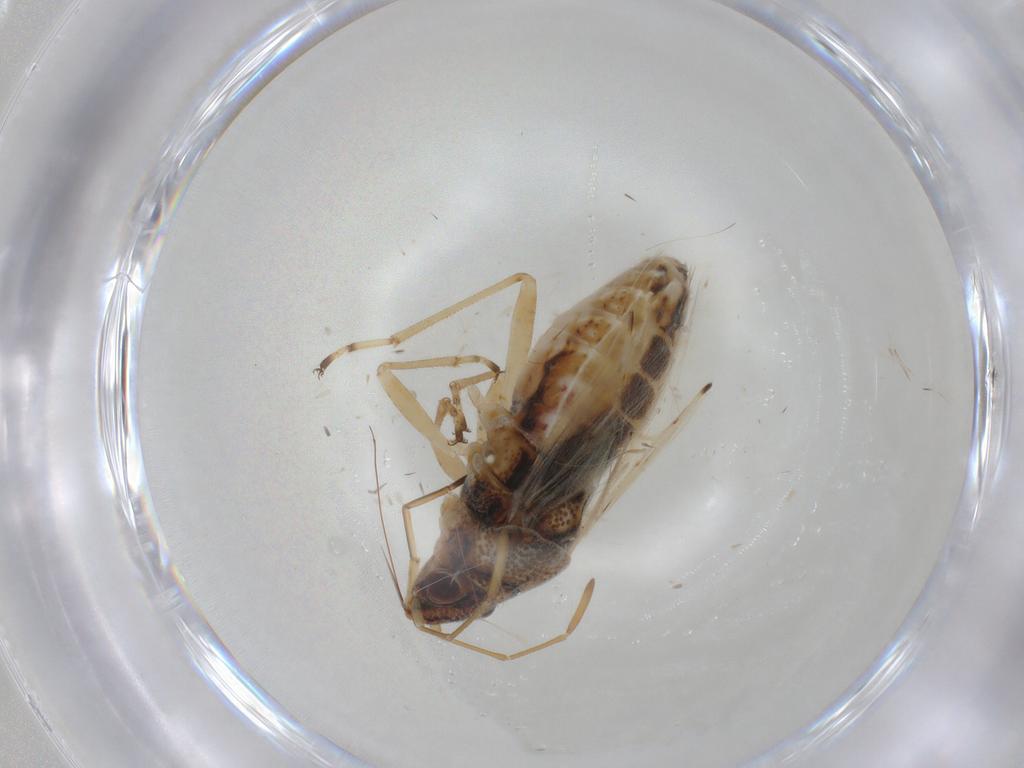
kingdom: Animalia
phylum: Arthropoda
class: Insecta
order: Hemiptera
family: Lygaeidae
